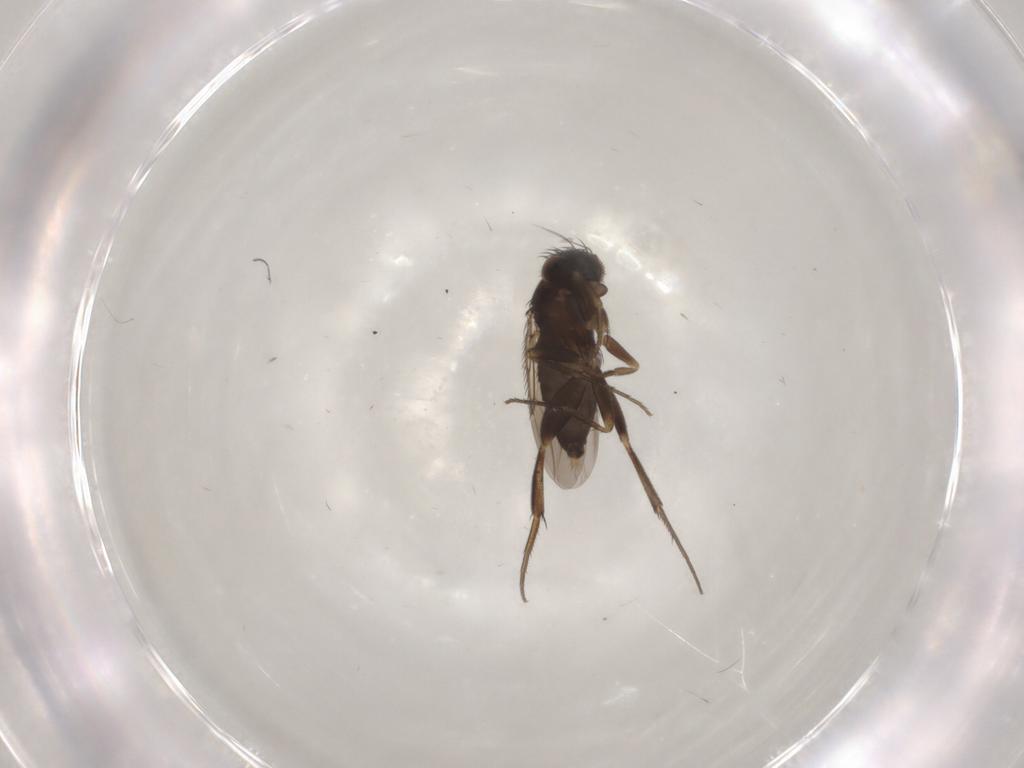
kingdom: Animalia
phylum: Arthropoda
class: Insecta
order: Diptera
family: Phoridae
